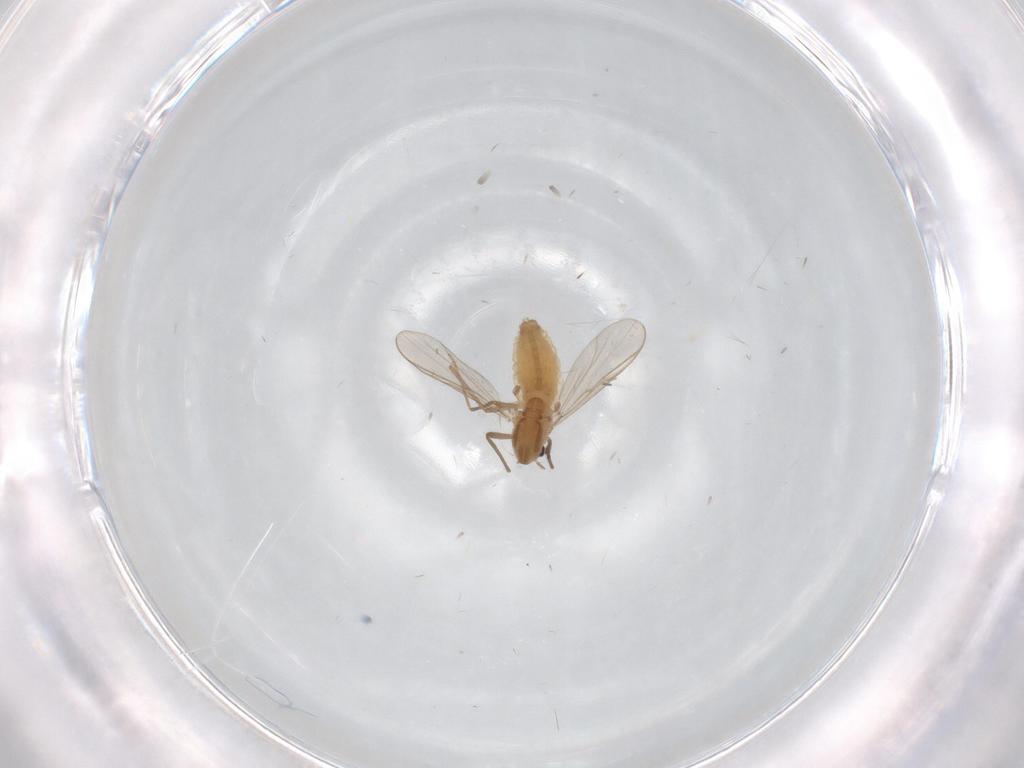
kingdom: Animalia
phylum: Arthropoda
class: Insecta
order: Diptera
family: Chironomidae
